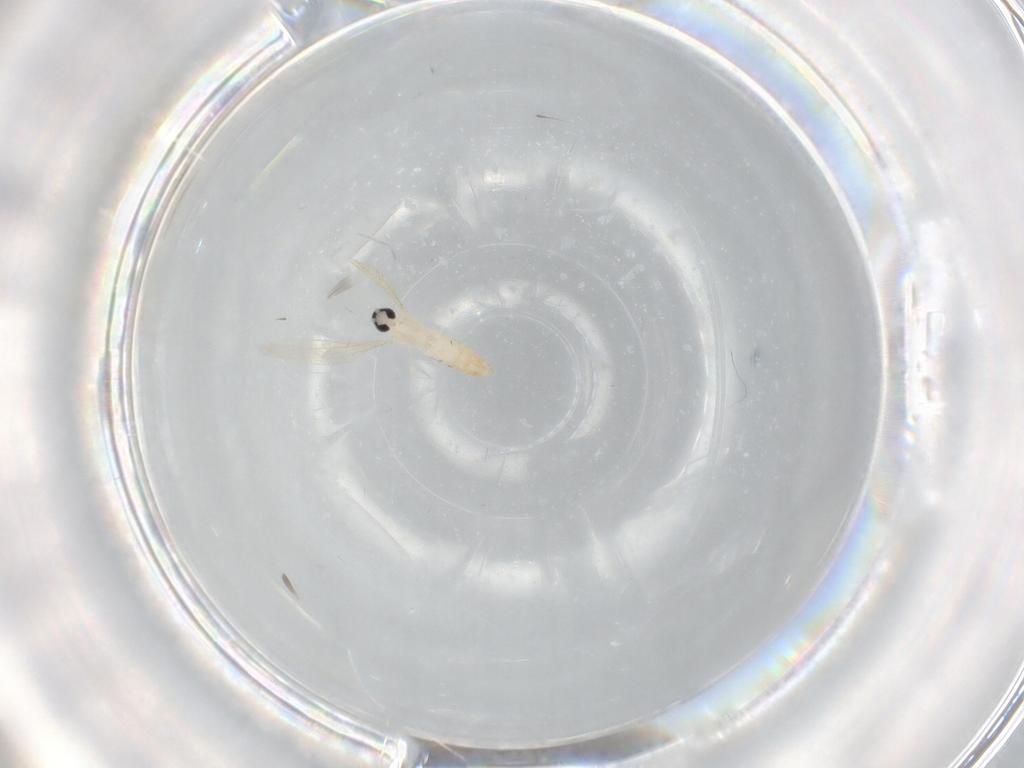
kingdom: Animalia
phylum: Arthropoda
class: Insecta
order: Diptera
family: Cecidomyiidae
